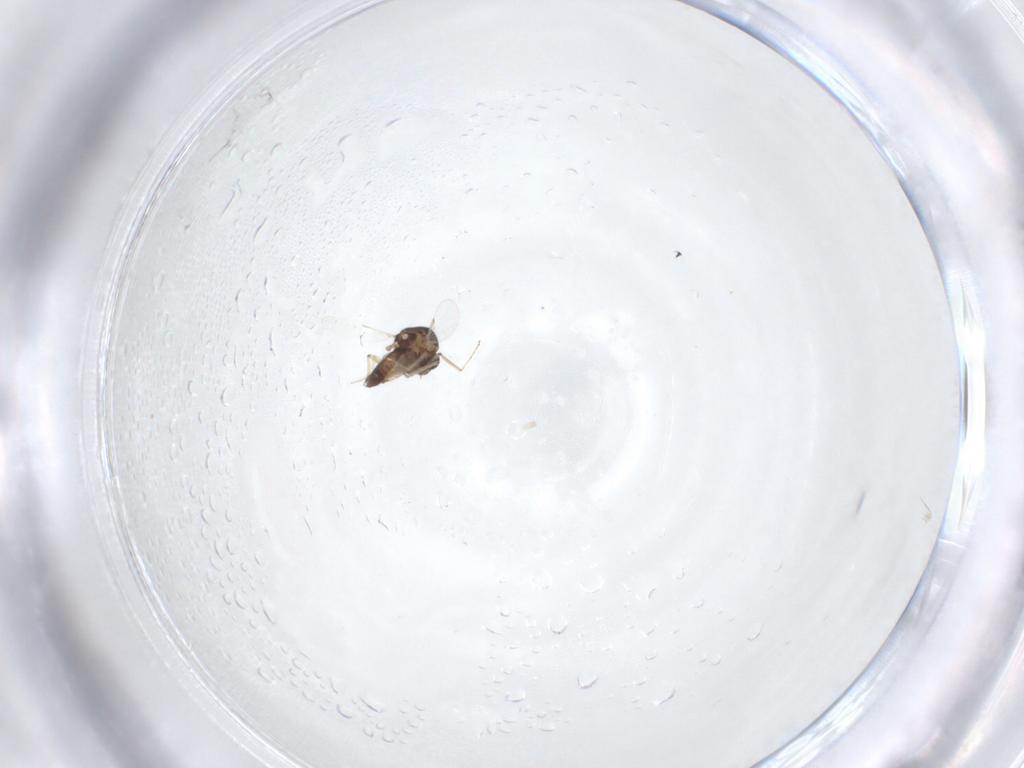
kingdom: Animalia
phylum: Arthropoda
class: Insecta
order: Diptera
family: Ceratopogonidae
